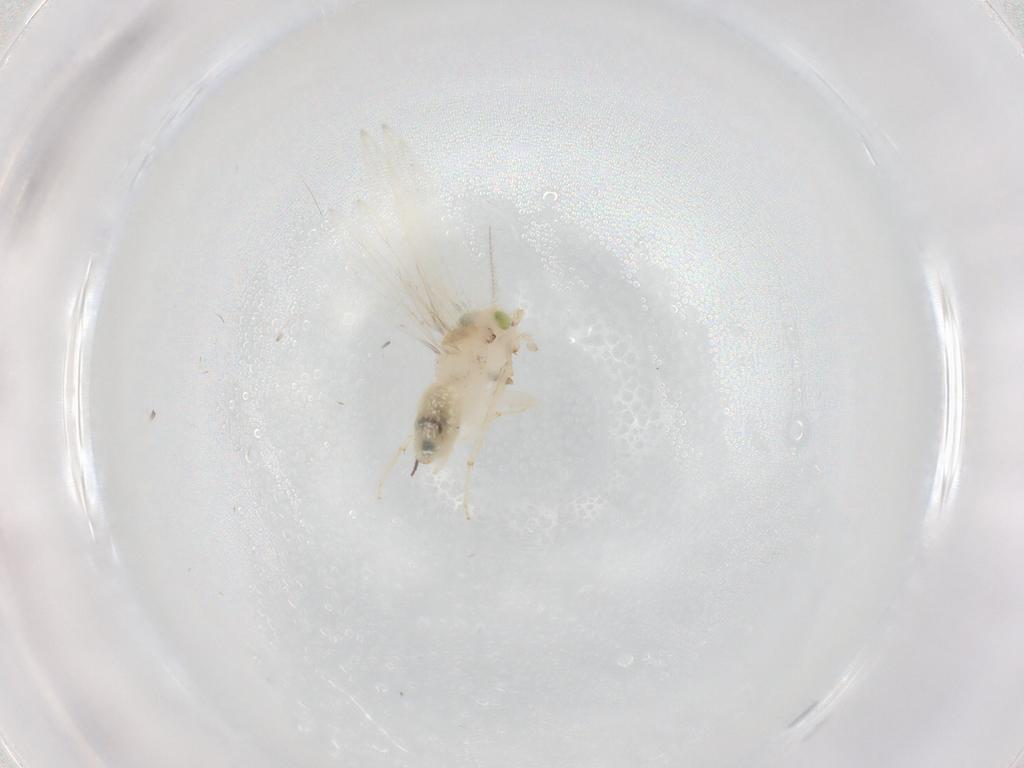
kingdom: Animalia
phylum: Arthropoda
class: Insecta
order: Psocodea
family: Lepidopsocidae
